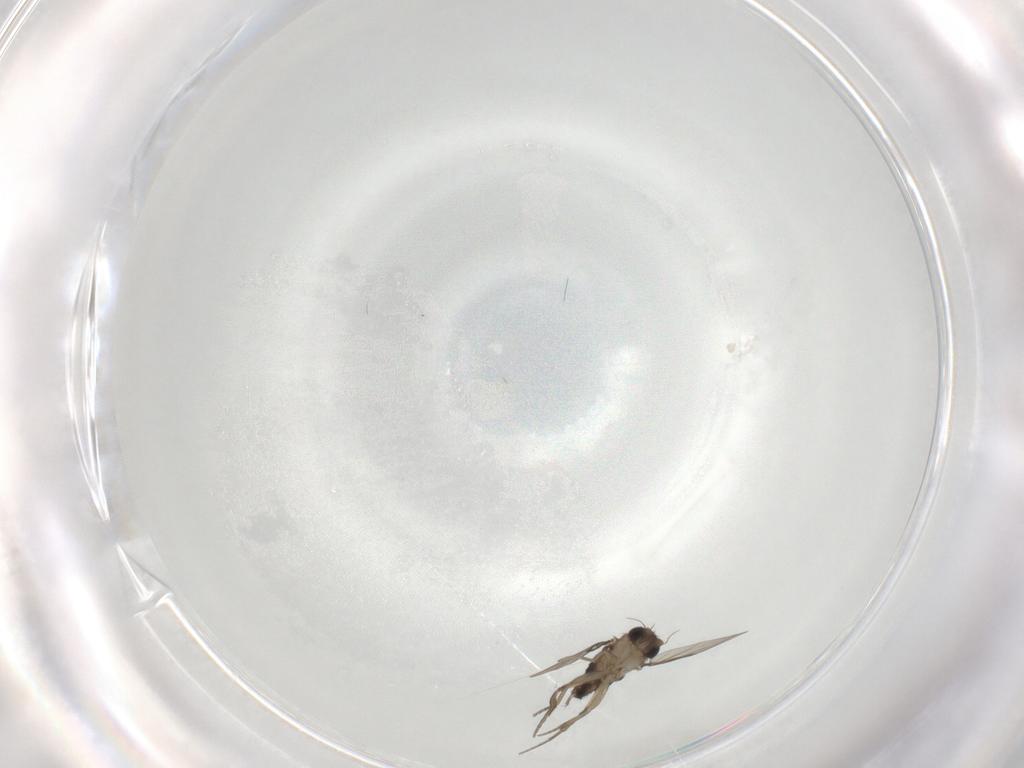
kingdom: Animalia
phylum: Arthropoda
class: Insecta
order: Diptera
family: Phoridae
